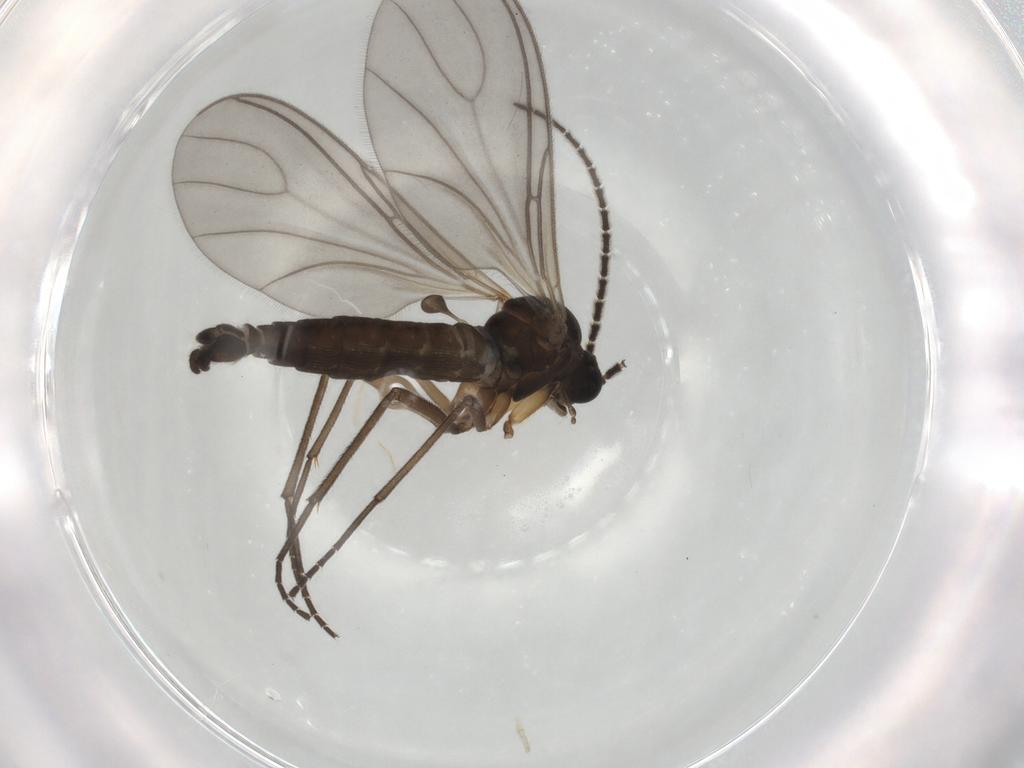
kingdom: Animalia
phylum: Arthropoda
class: Insecta
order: Diptera
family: Sciaridae
